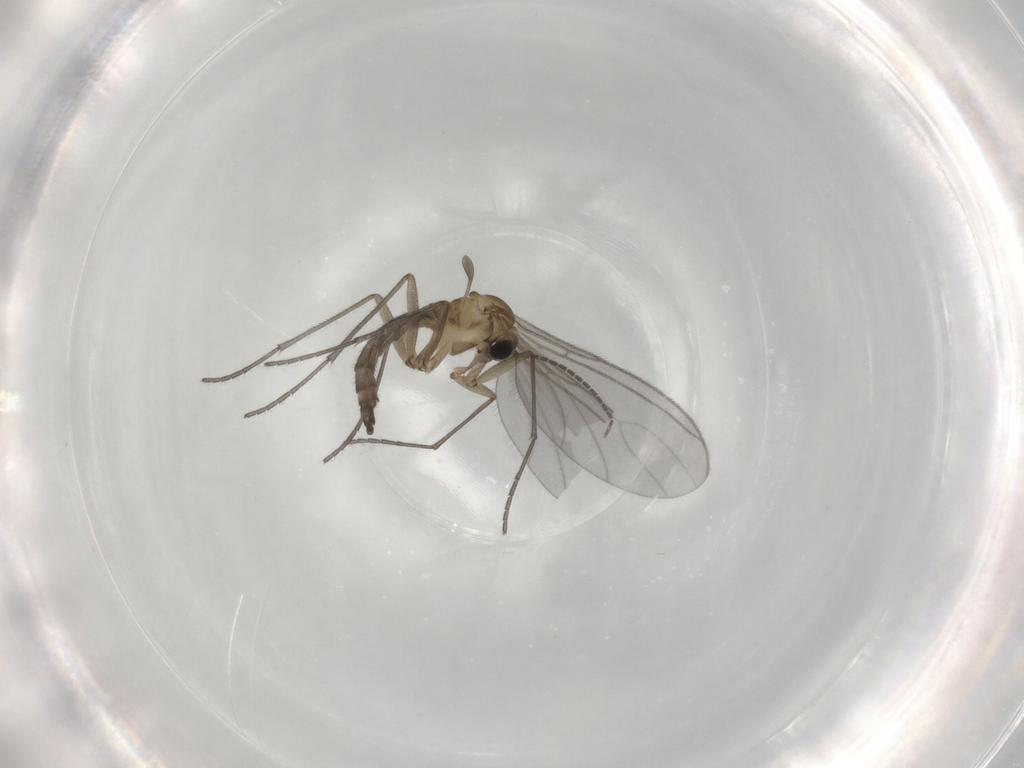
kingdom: Animalia
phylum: Arthropoda
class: Insecta
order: Diptera
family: Sciaridae
